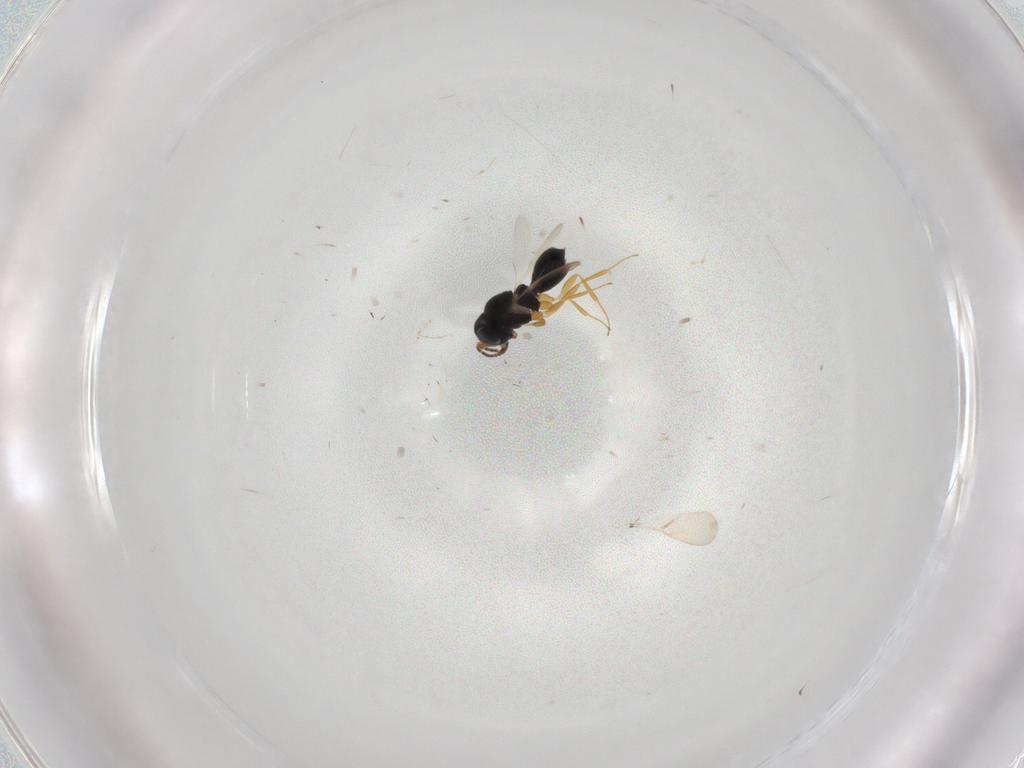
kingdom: Animalia
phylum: Arthropoda
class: Insecta
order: Hymenoptera
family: Scelionidae
